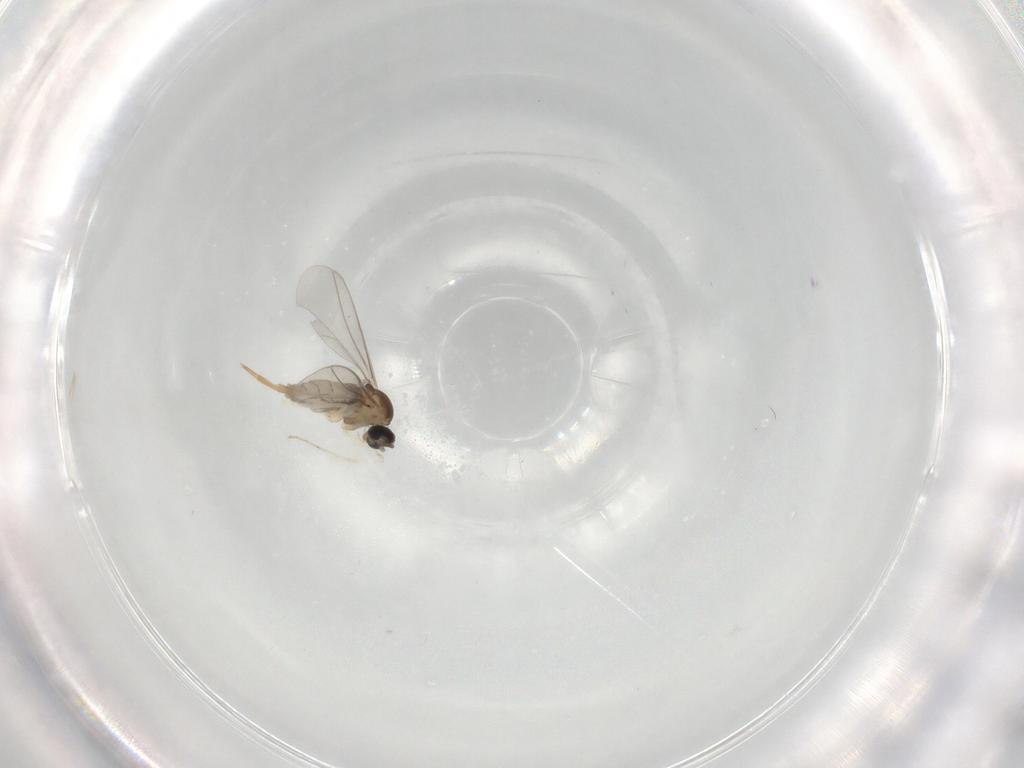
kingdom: Animalia
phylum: Arthropoda
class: Insecta
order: Diptera
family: Cecidomyiidae
